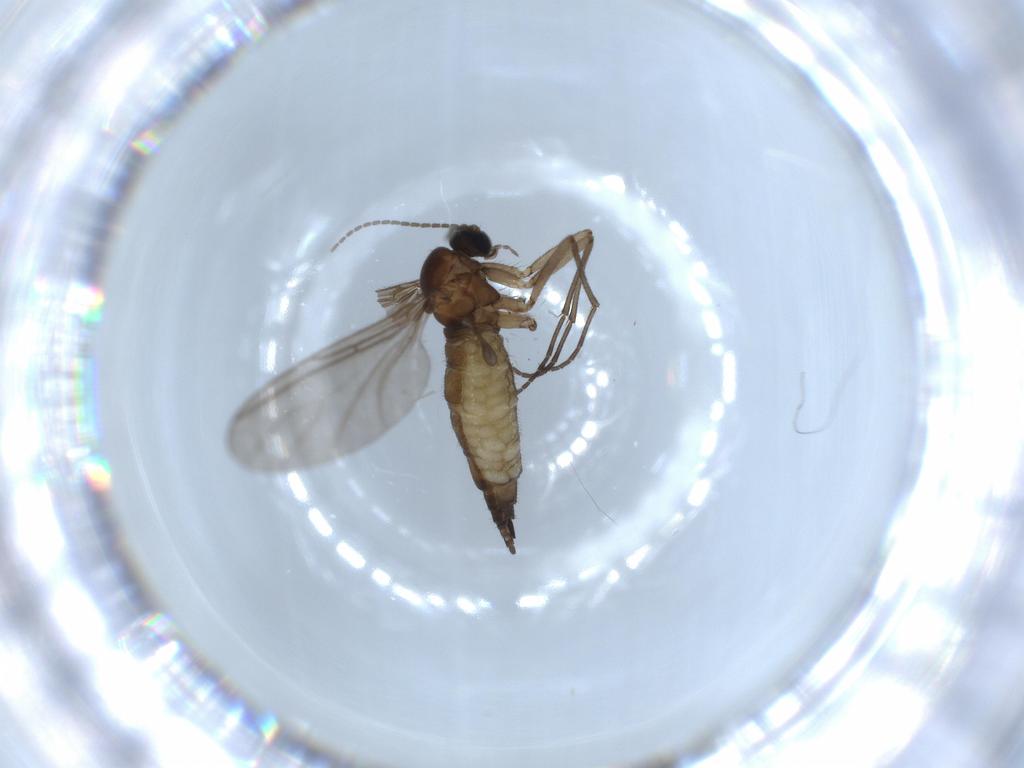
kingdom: Animalia
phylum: Arthropoda
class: Insecta
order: Diptera
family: Sciaridae
